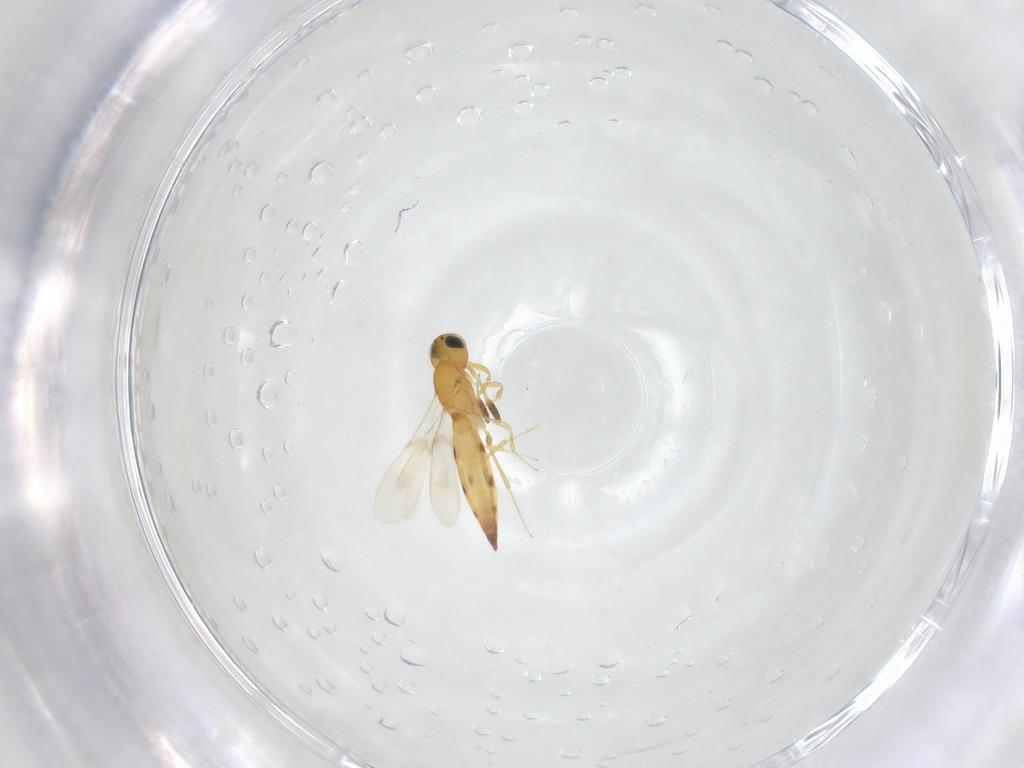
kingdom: Animalia
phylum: Arthropoda
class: Insecta
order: Hymenoptera
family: Scelionidae
